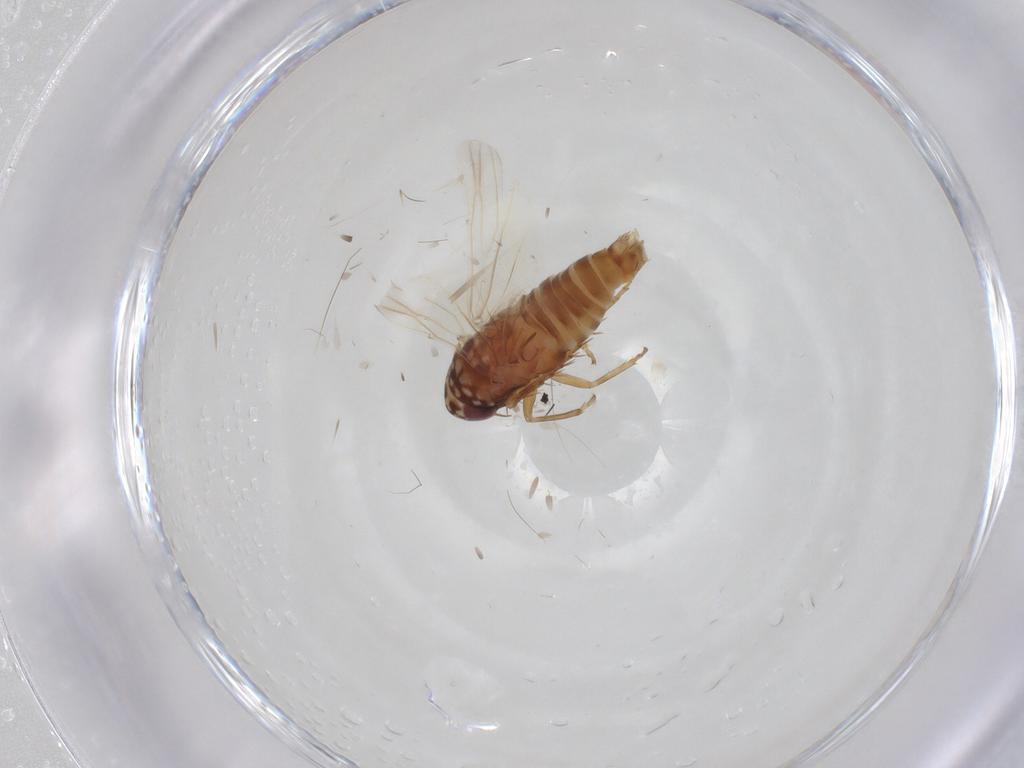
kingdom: Animalia
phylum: Arthropoda
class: Insecta
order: Hemiptera
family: Cicadellidae
